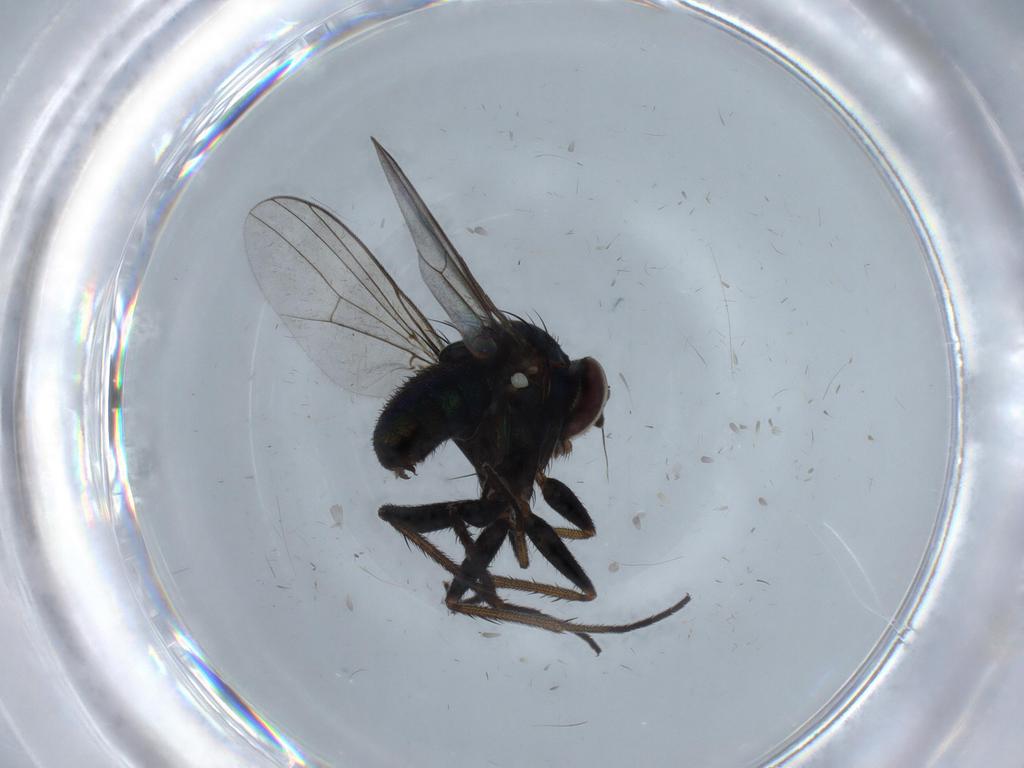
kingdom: Animalia
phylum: Arthropoda
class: Insecta
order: Diptera
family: Dolichopodidae
